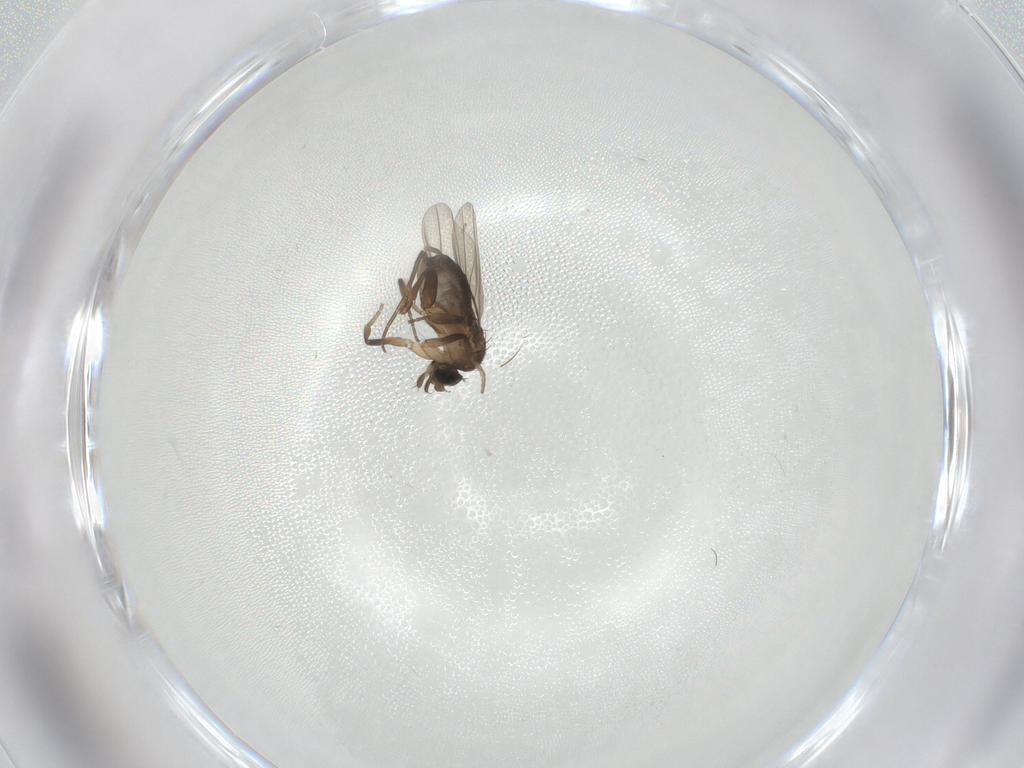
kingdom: Animalia
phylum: Arthropoda
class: Insecta
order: Diptera
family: Phoridae
